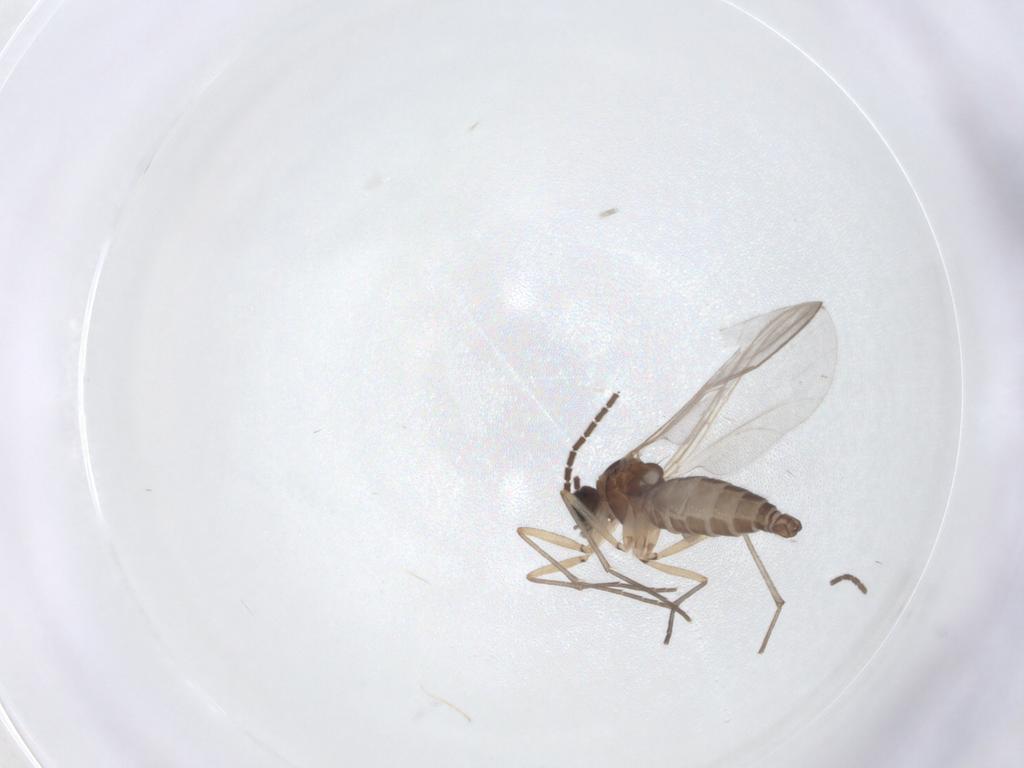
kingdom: Animalia
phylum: Arthropoda
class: Insecta
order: Diptera
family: Sciaridae
